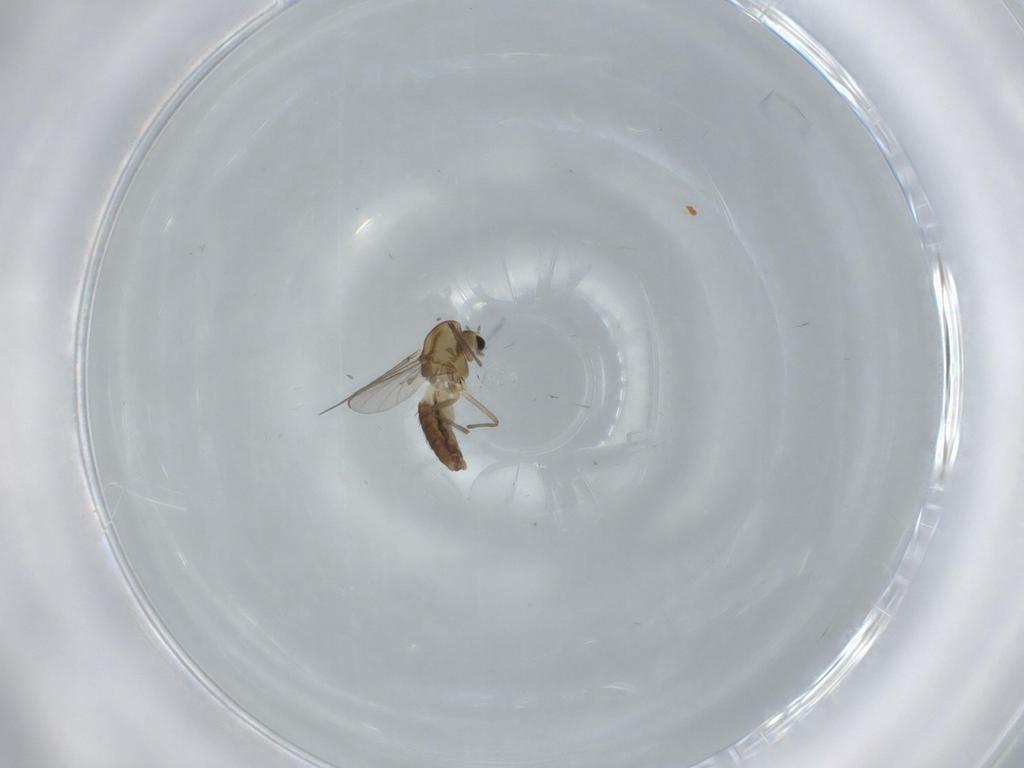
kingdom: Animalia
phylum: Arthropoda
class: Insecta
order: Diptera
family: Chironomidae
